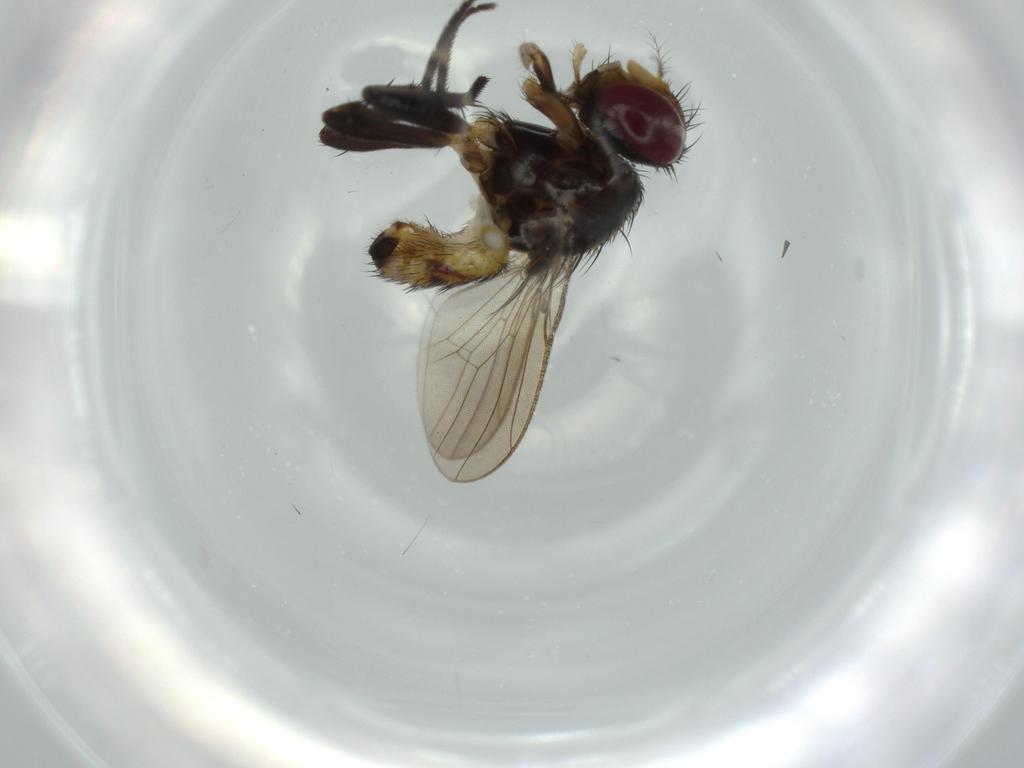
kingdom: Animalia
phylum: Arthropoda
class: Insecta
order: Diptera
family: Anthomyiidae
